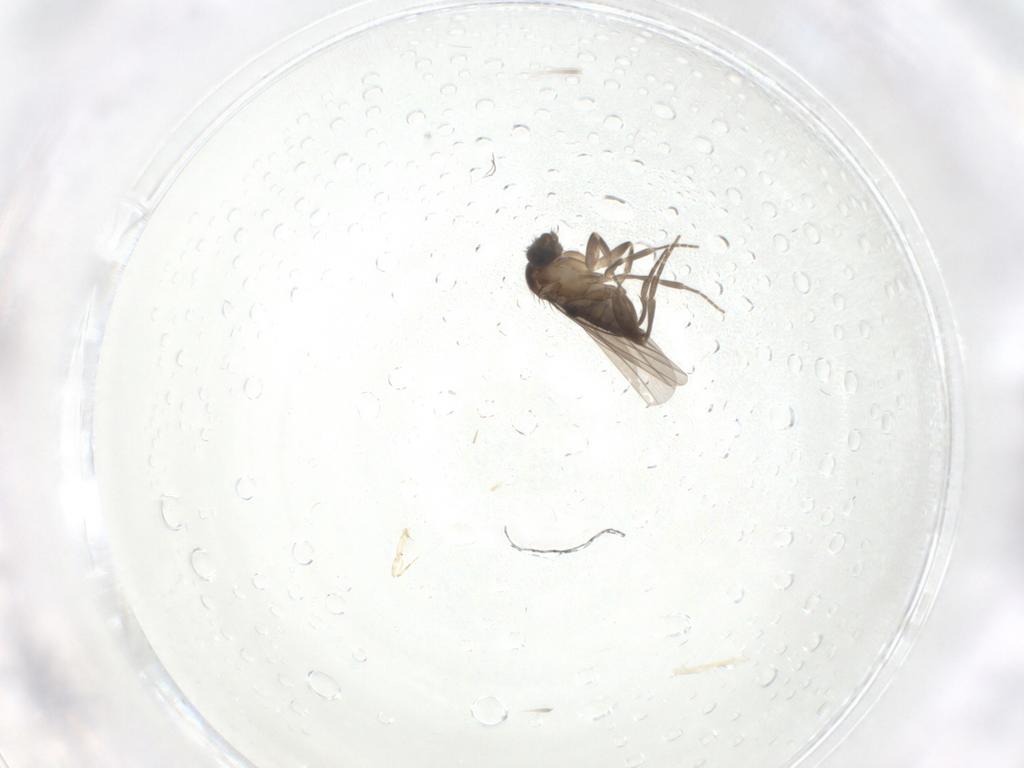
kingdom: Animalia
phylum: Arthropoda
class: Insecta
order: Diptera
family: Phoridae
